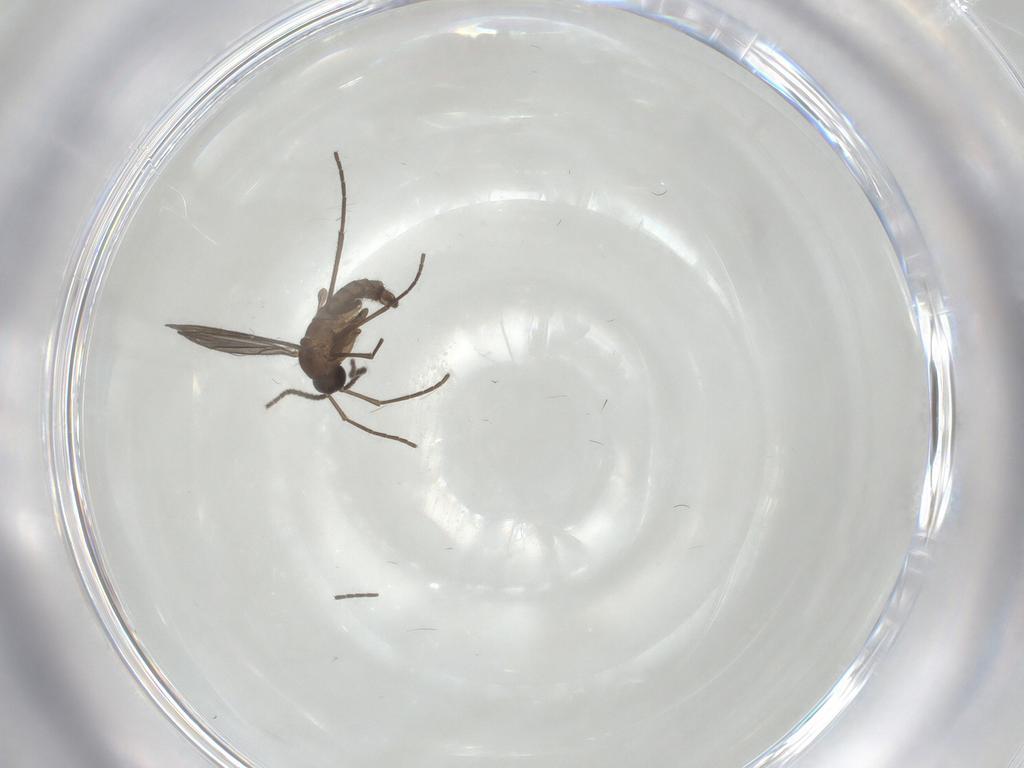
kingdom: Animalia
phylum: Arthropoda
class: Insecta
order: Diptera
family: Sciaridae
